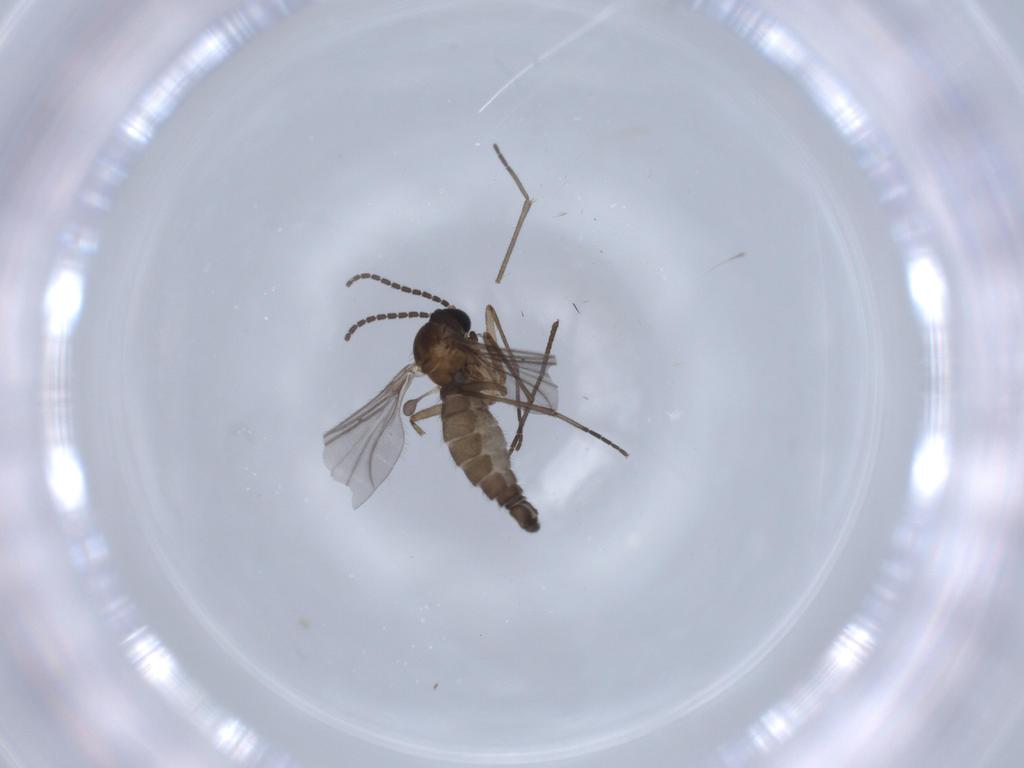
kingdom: Animalia
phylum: Arthropoda
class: Insecta
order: Diptera
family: Sciaridae
